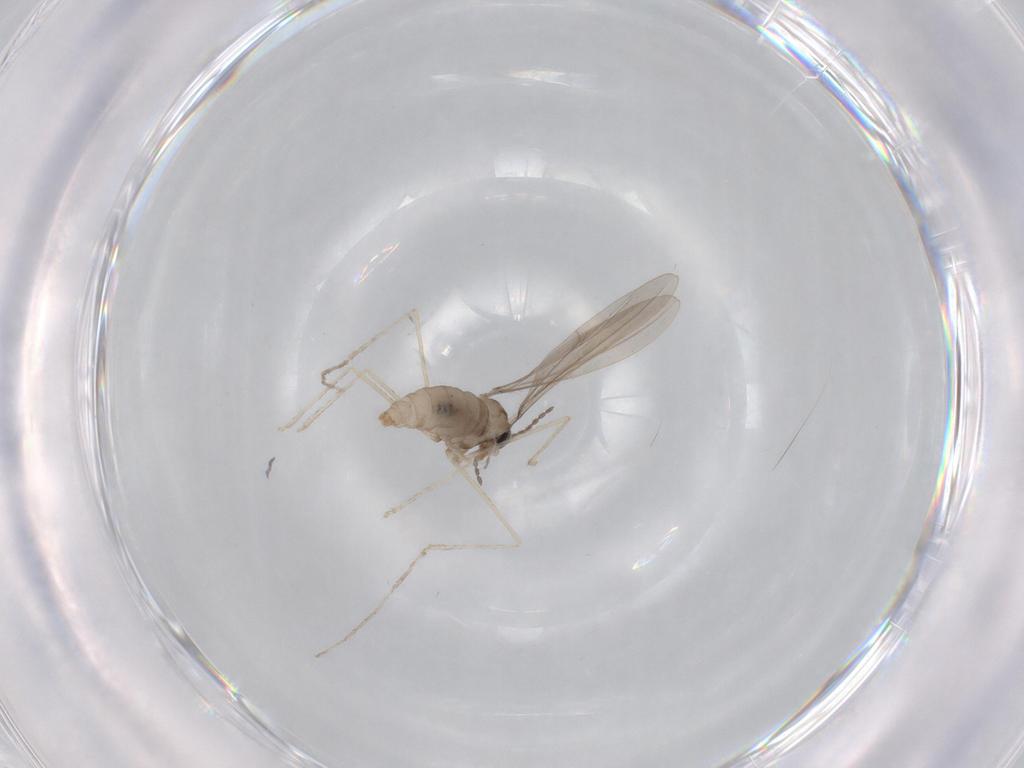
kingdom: Animalia
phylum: Arthropoda
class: Insecta
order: Diptera
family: Cecidomyiidae
